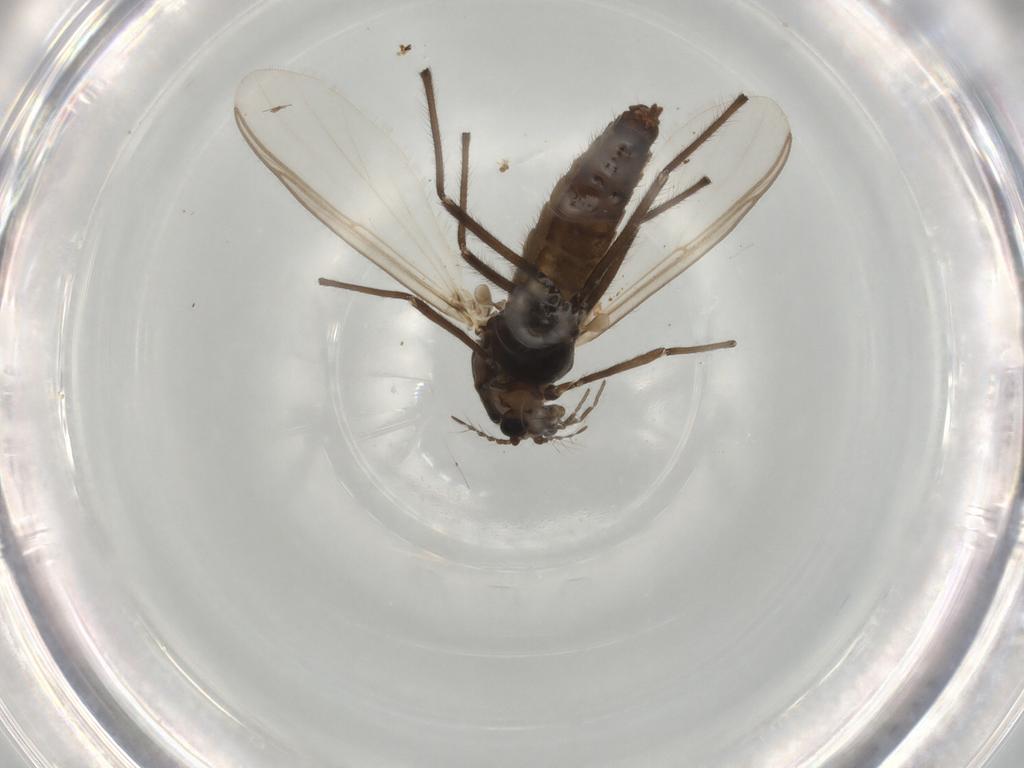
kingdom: Animalia
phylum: Arthropoda
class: Insecta
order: Diptera
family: Chironomidae
